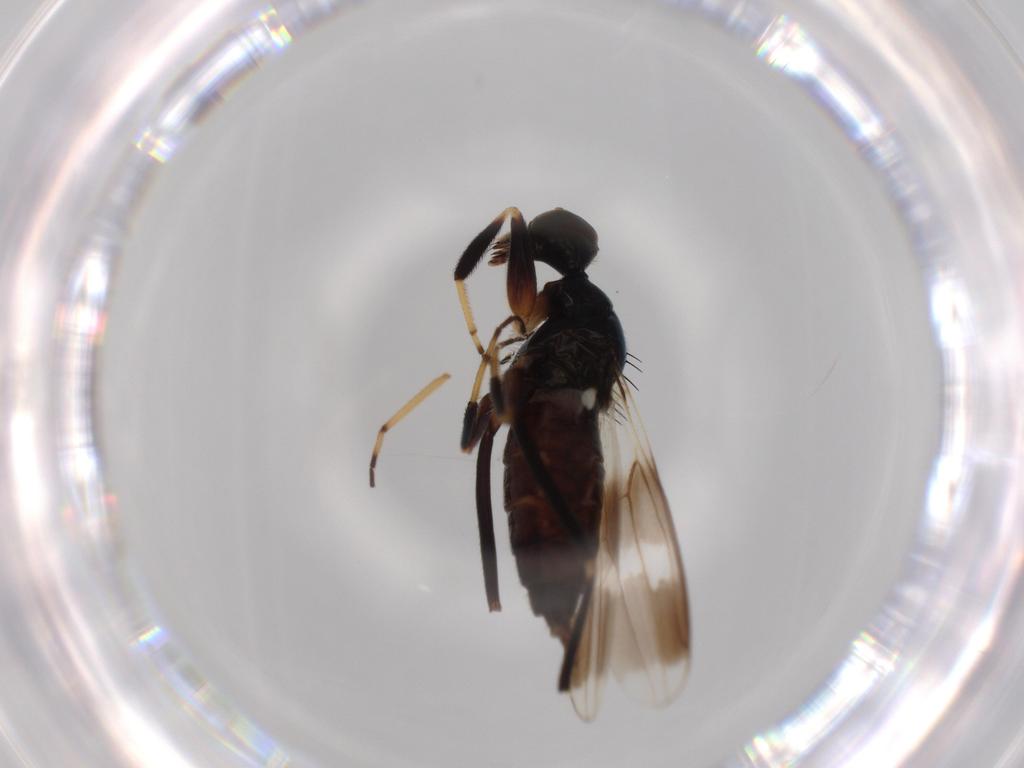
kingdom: Animalia
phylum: Arthropoda
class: Insecta
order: Diptera
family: Hybotidae
